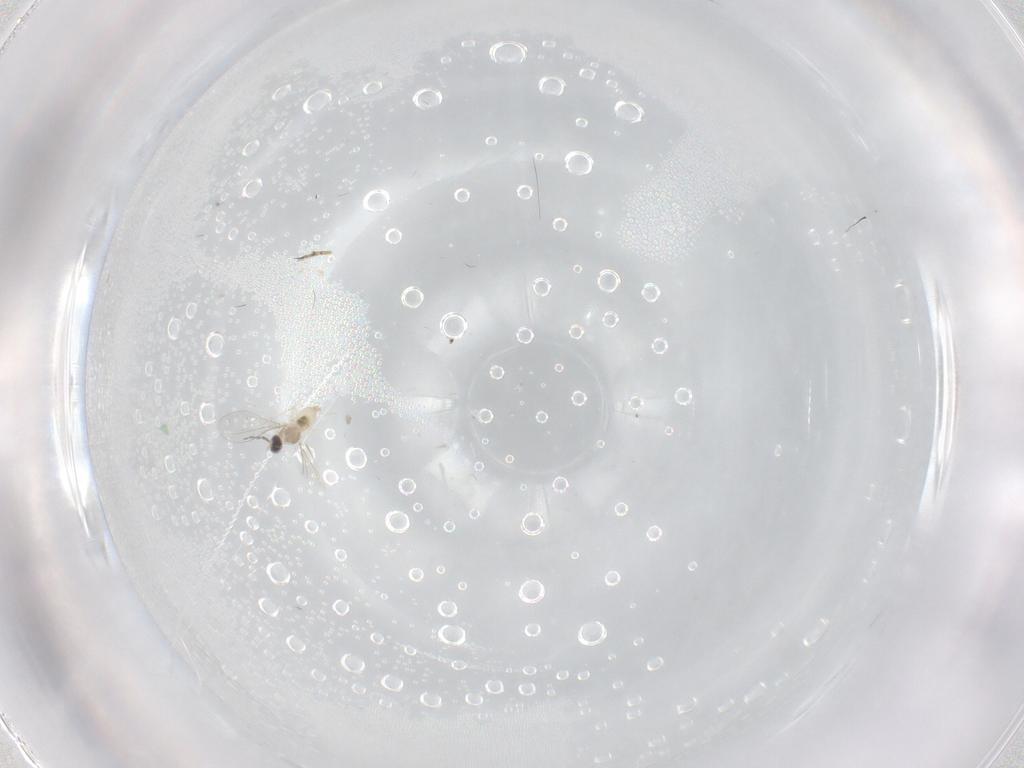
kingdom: Animalia
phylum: Arthropoda
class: Insecta
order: Diptera
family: Cecidomyiidae
